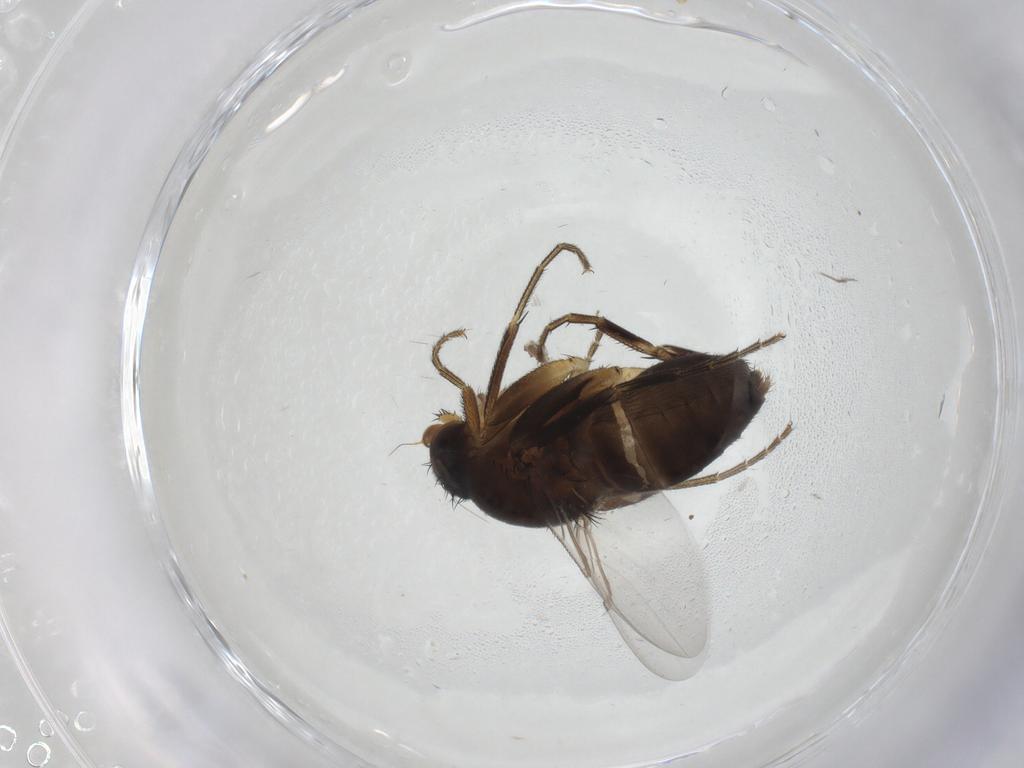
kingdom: Animalia
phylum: Arthropoda
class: Insecta
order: Diptera
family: Phoridae
